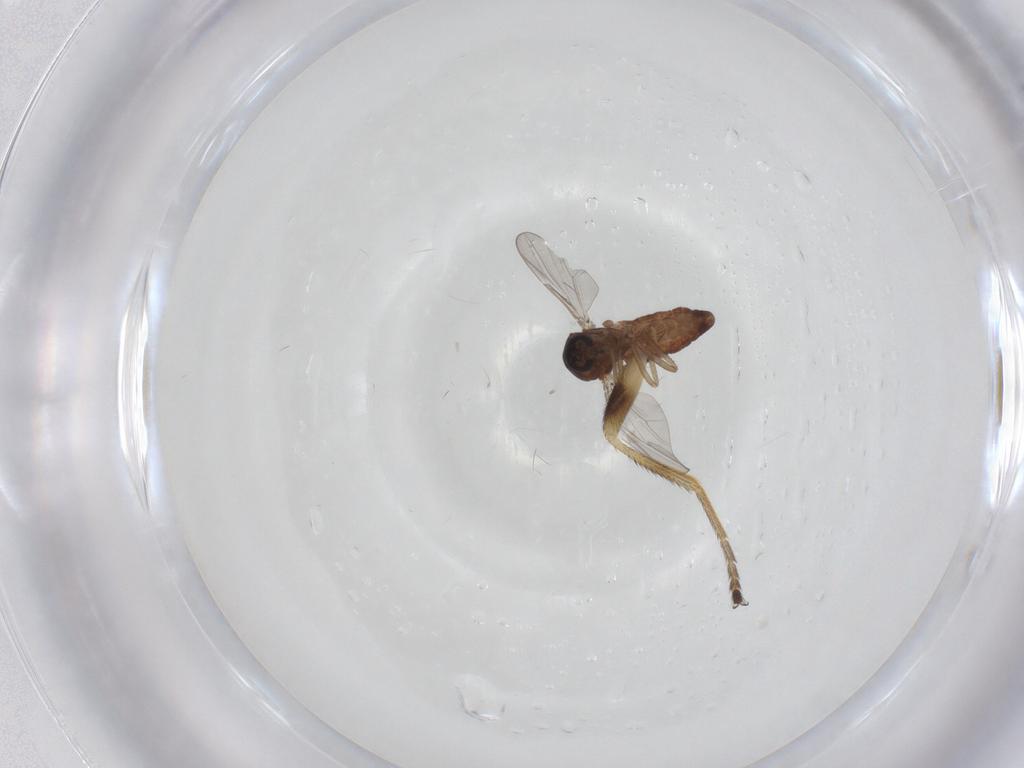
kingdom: Animalia
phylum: Arthropoda
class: Insecta
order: Diptera
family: Ceratopogonidae
